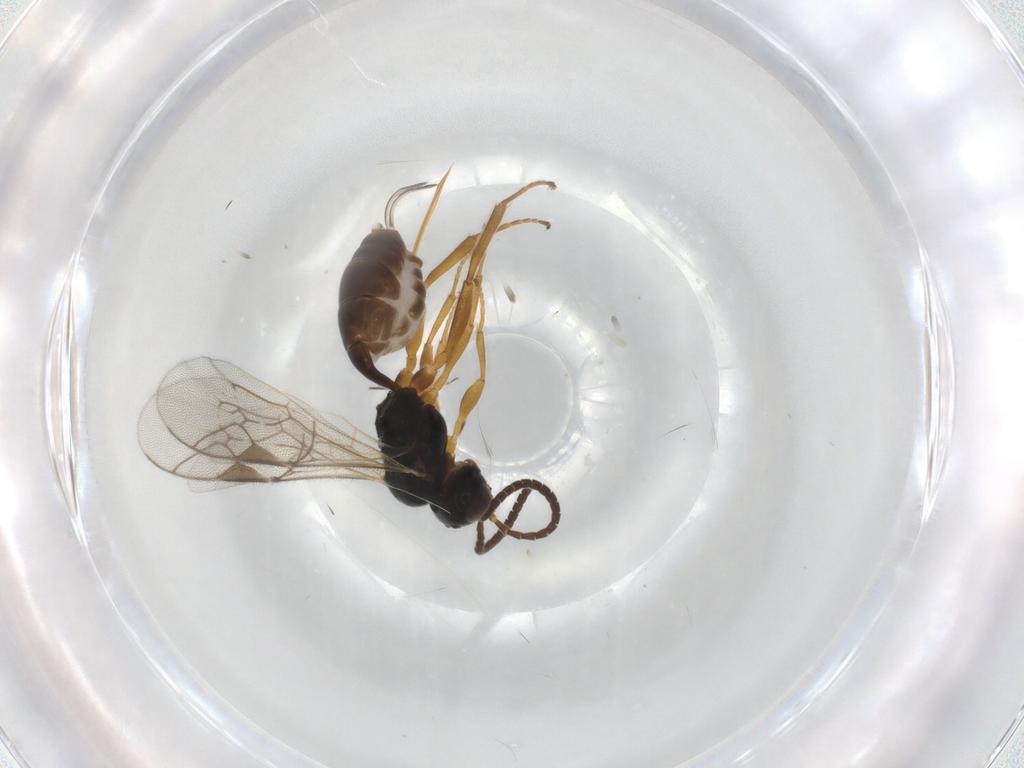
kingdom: Animalia
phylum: Arthropoda
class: Insecta
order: Hymenoptera
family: Ichneumonidae
